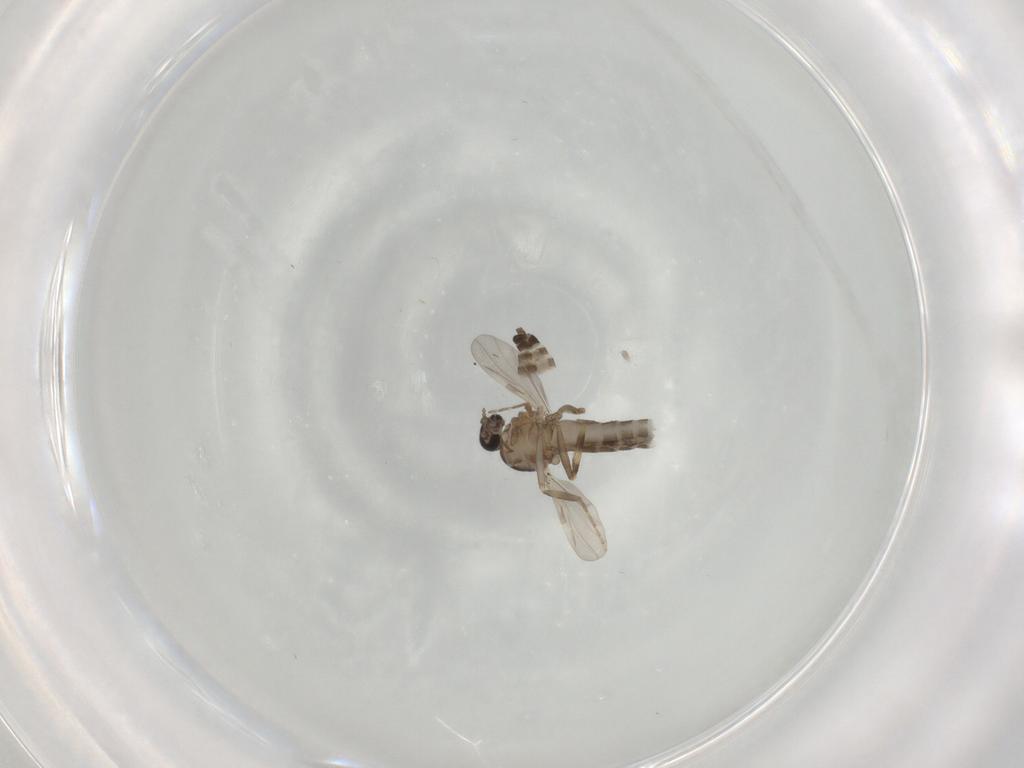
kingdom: Animalia
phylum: Arthropoda
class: Insecta
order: Diptera
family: Ceratopogonidae
